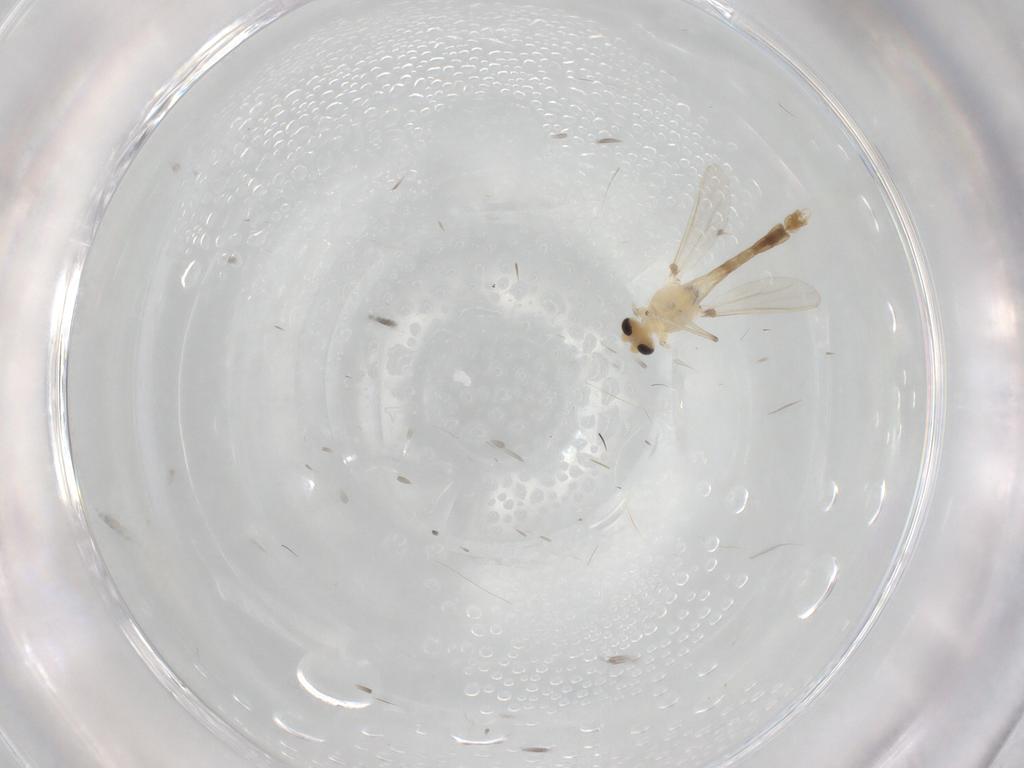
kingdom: Animalia
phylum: Arthropoda
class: Insecta
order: Diptera
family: Chironomidae
